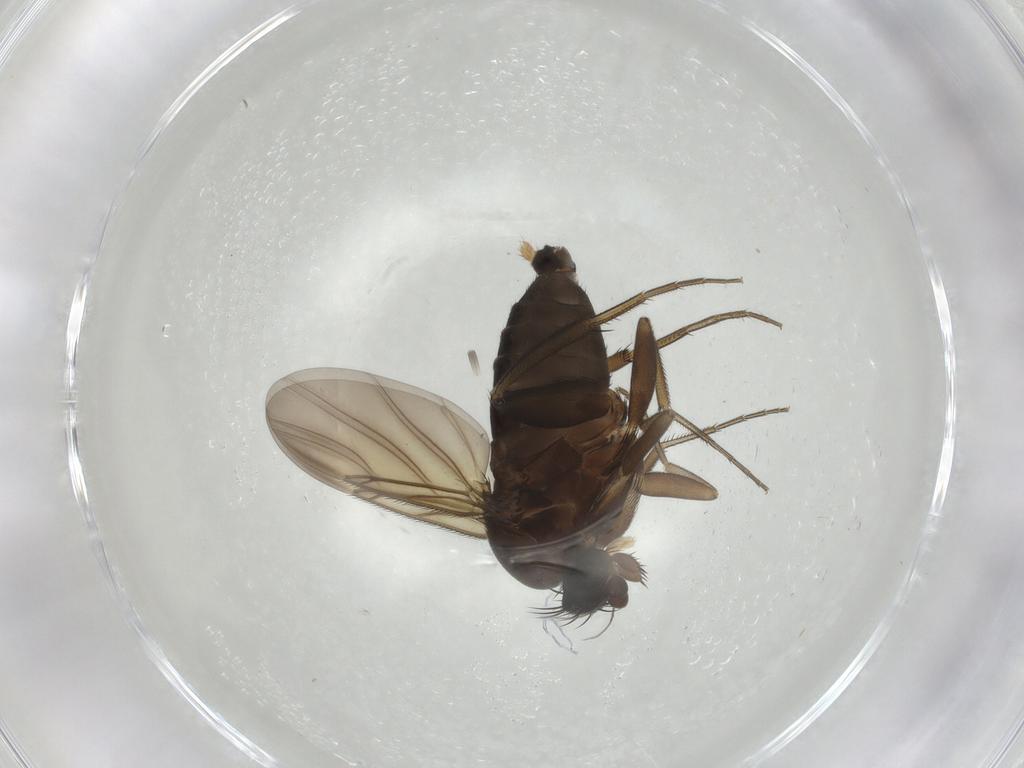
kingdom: Animalia
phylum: Arthropoda
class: Insecta
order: Diptera
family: Phoridae
